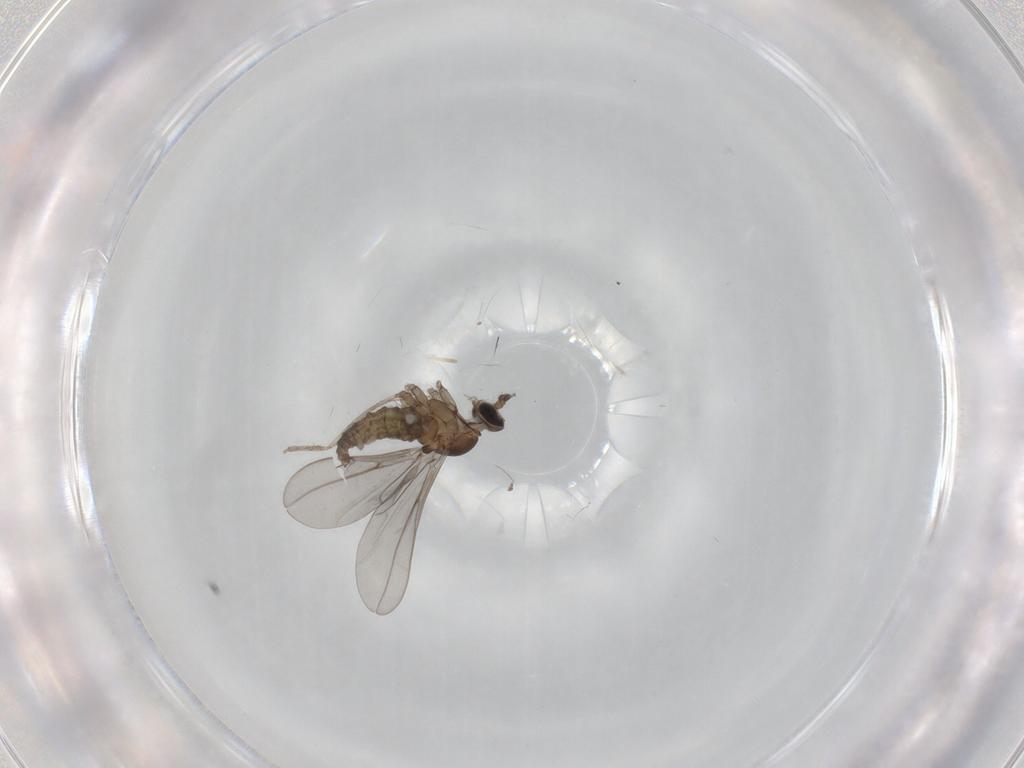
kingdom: Animalia
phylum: Arthropoda
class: Insecta
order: Diptera
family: Cecidomyiidae
